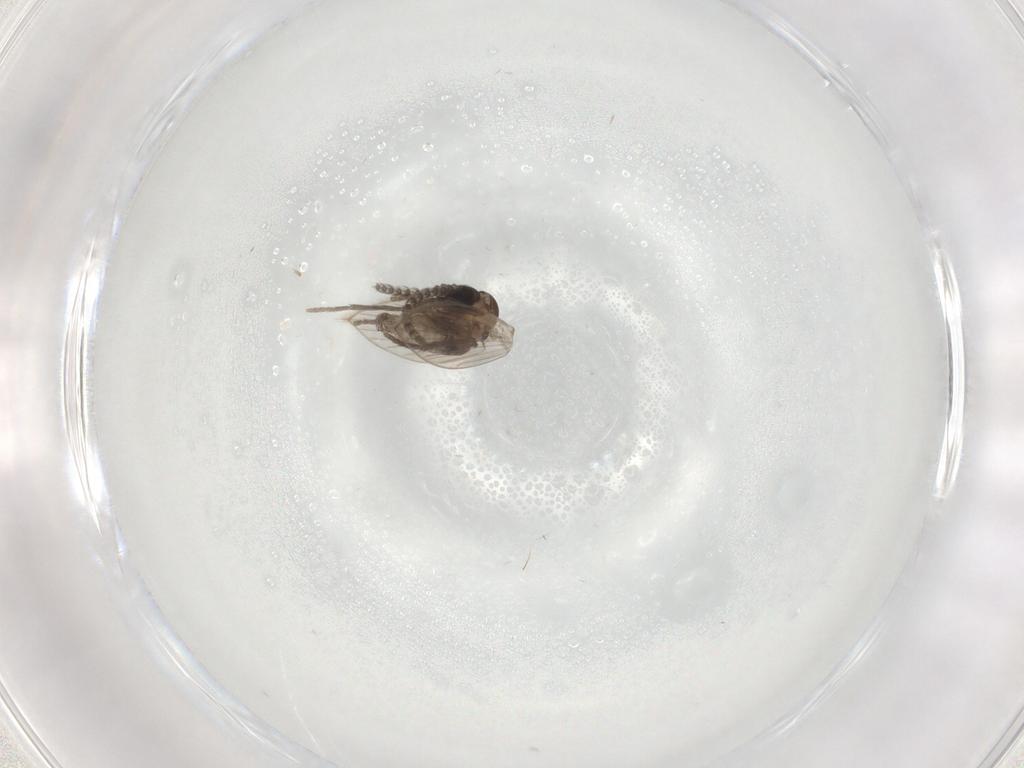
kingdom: Animalia
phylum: Arthropoda
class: Insecta
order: Diptera
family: Psychodidae
